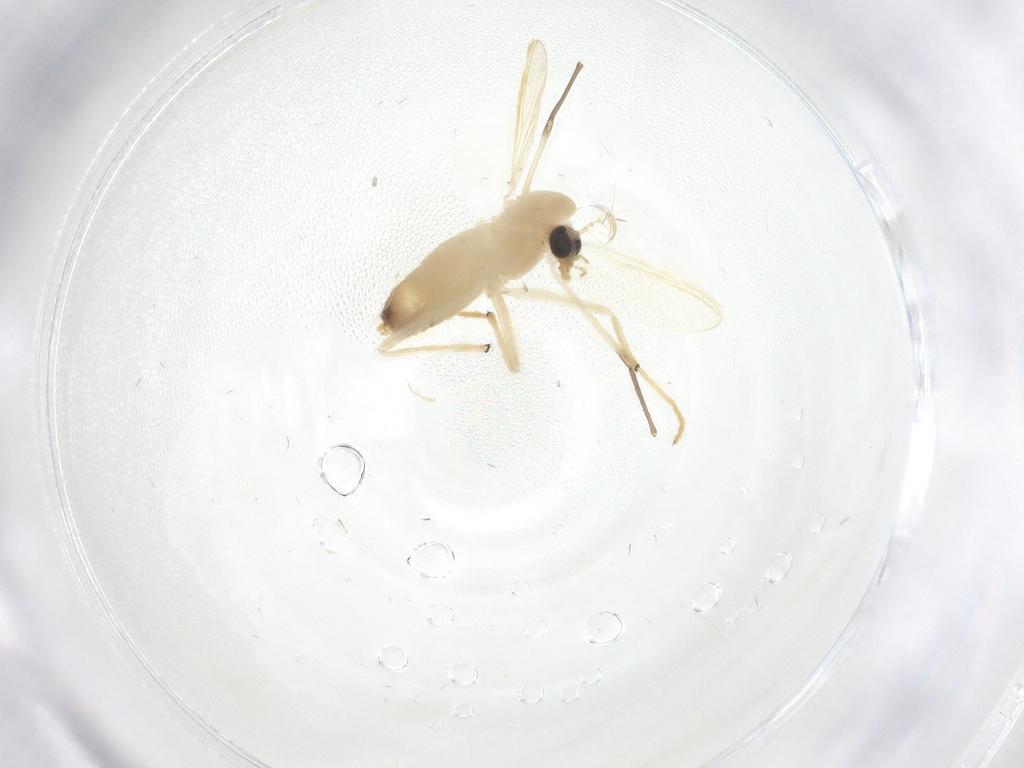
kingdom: Animalia
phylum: Arthropoda
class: Insecta
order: Diptera
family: Chironomidae
